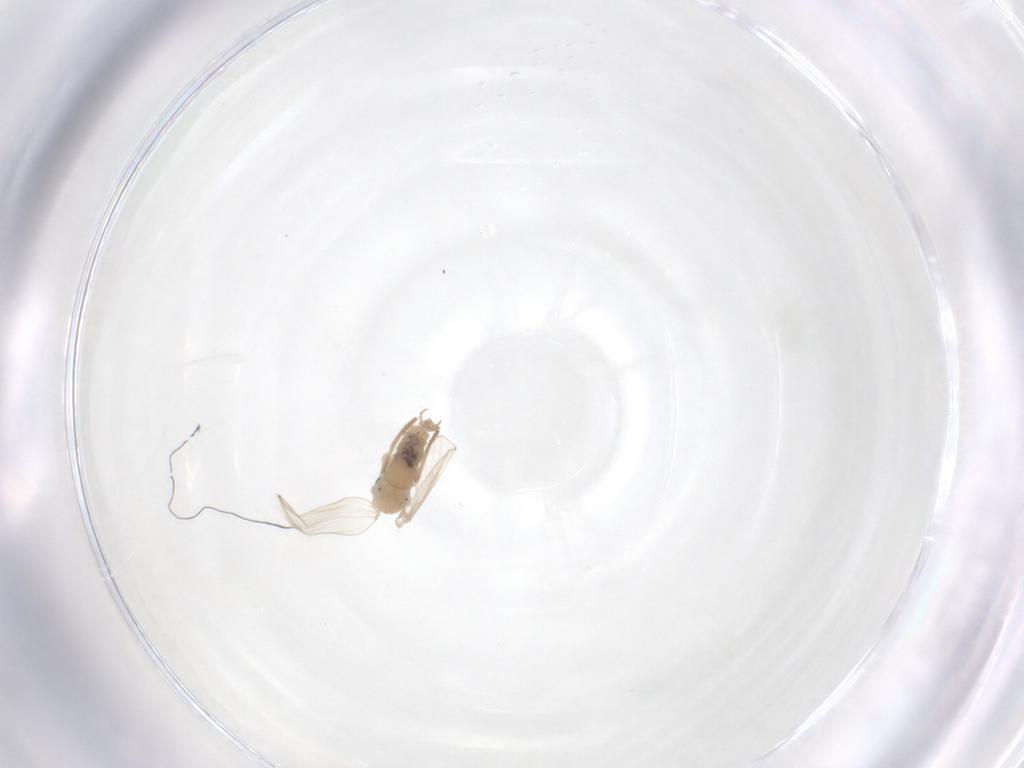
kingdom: Animalia
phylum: Arthropoda
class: Insecta
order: Diptera
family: Psychodidae
